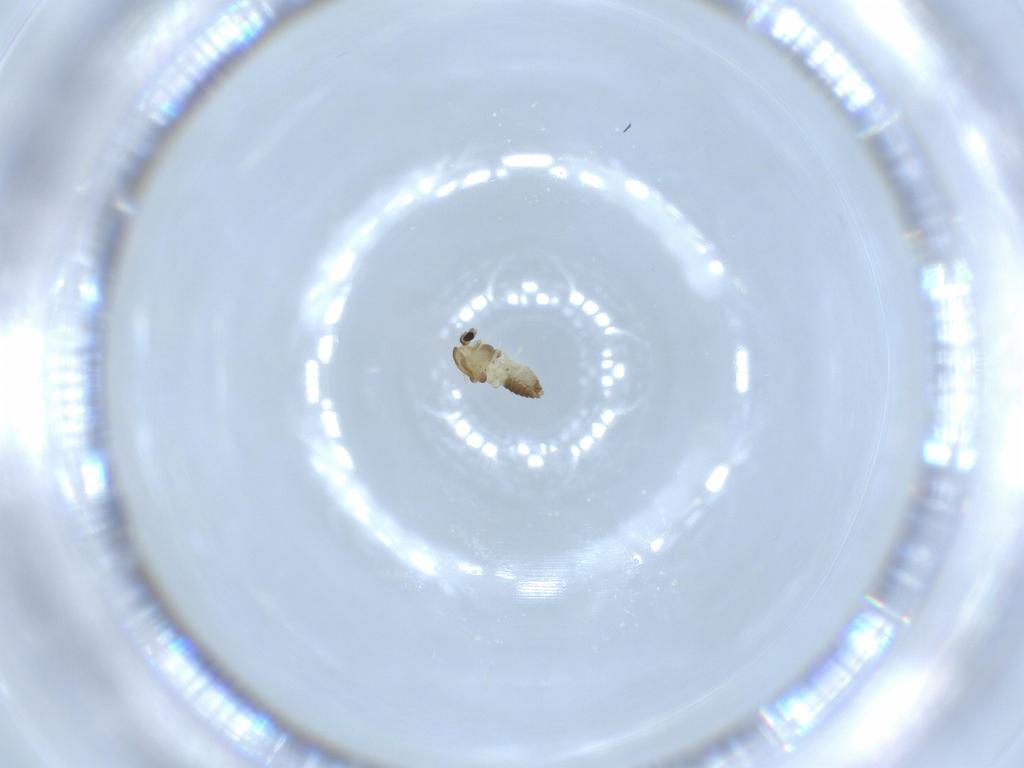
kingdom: Animalia
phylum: Arthropoda
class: Insecta
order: Diptera
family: Chironomidae
